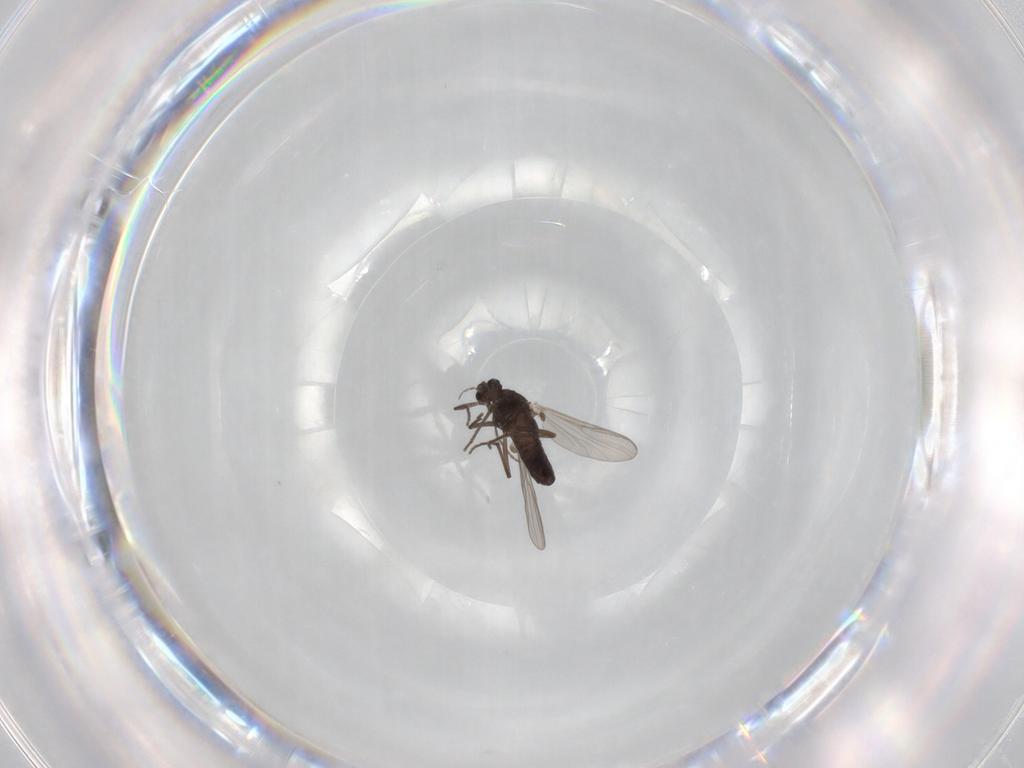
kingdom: Animalia
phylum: Arthropoda
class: Insecta
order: Diptera
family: Chironomidae
